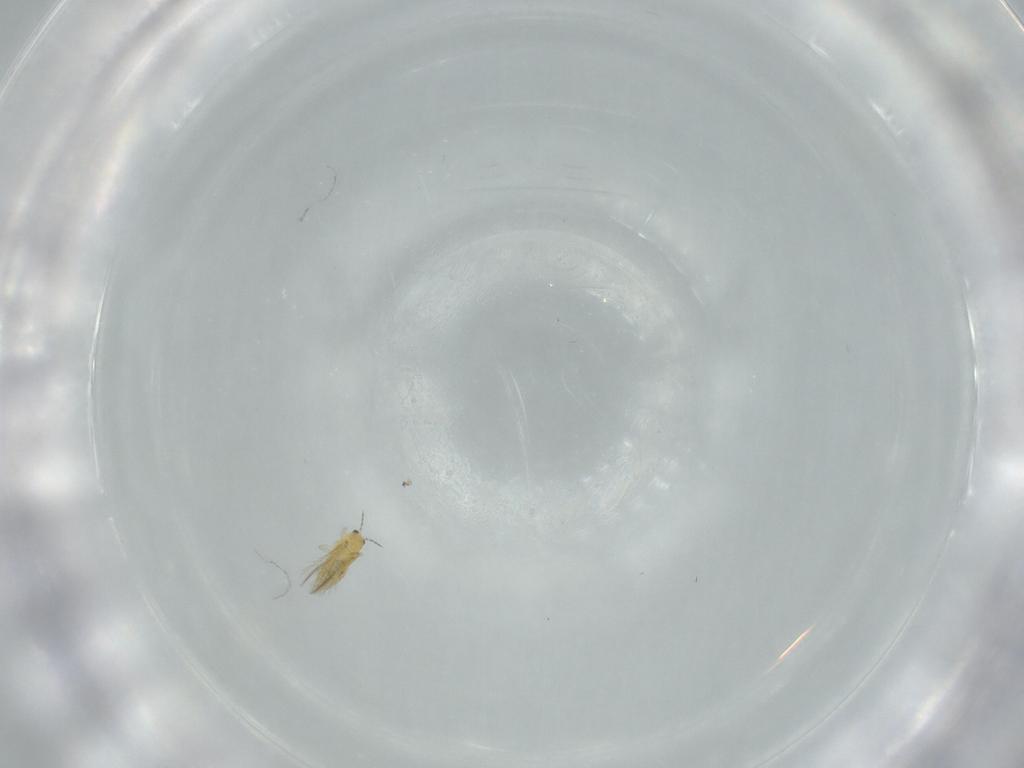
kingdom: Animalia
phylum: Arthropoda
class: Insecta
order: Thysanoptera
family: Thripidae
